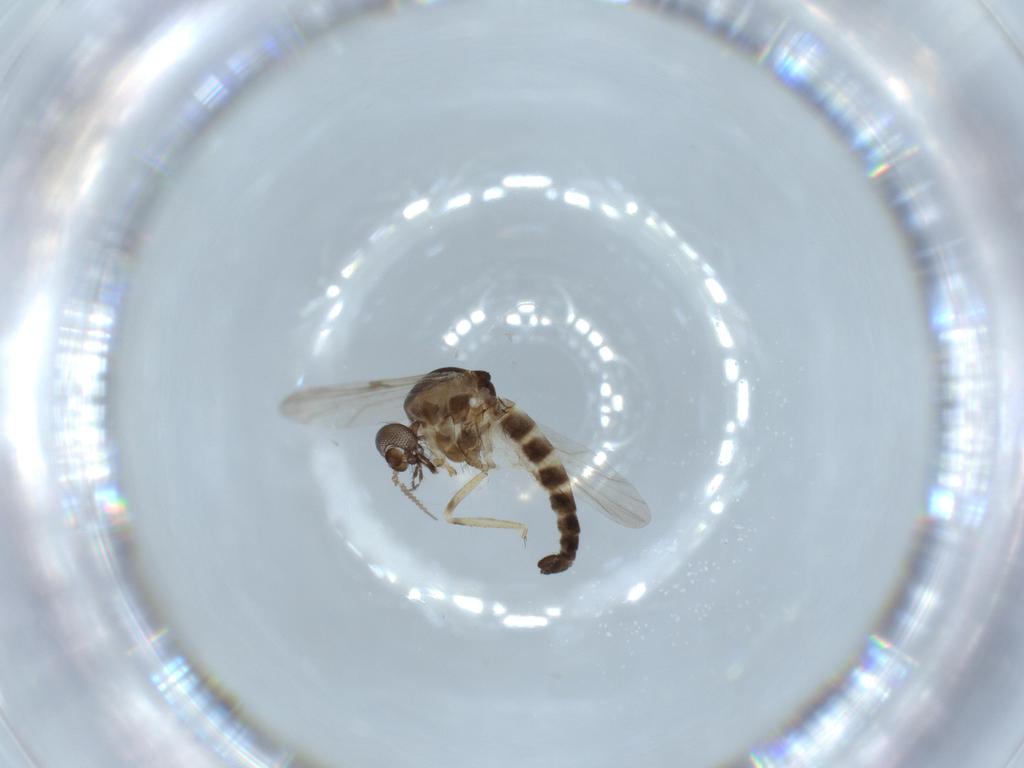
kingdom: Animalia
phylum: Arthropoda
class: Insecta
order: Diptera
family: Ceratopogonidae
